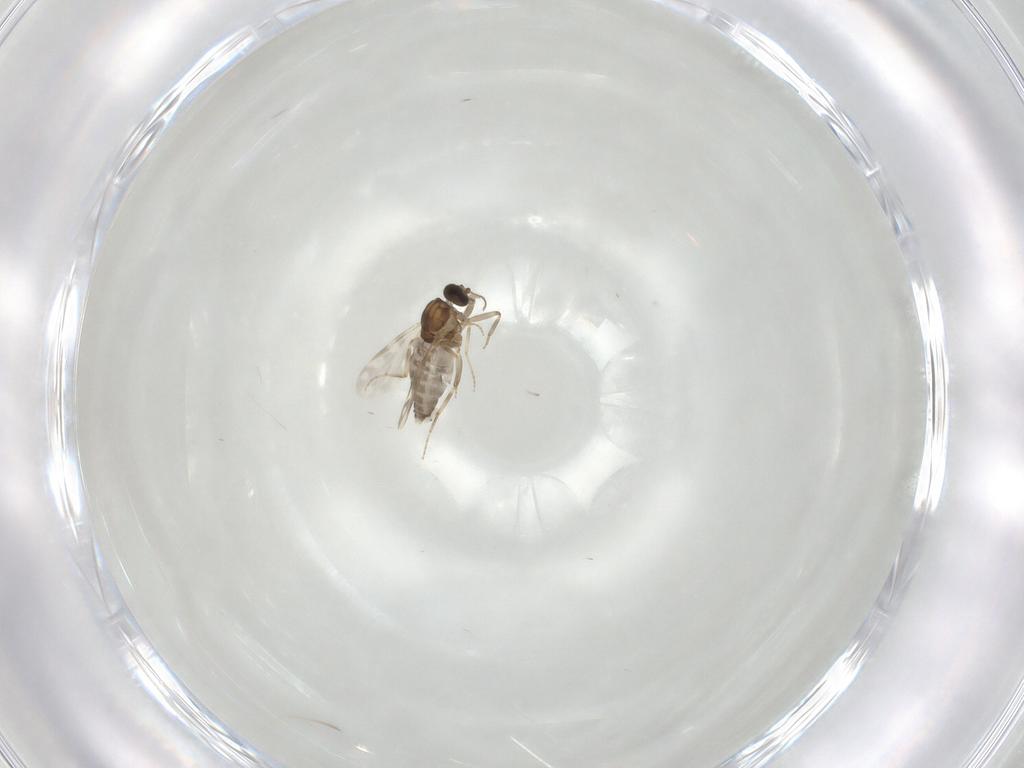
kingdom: Animalia
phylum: Arthropoda
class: Insecta
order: Diptera
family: Ceratopogonidae
